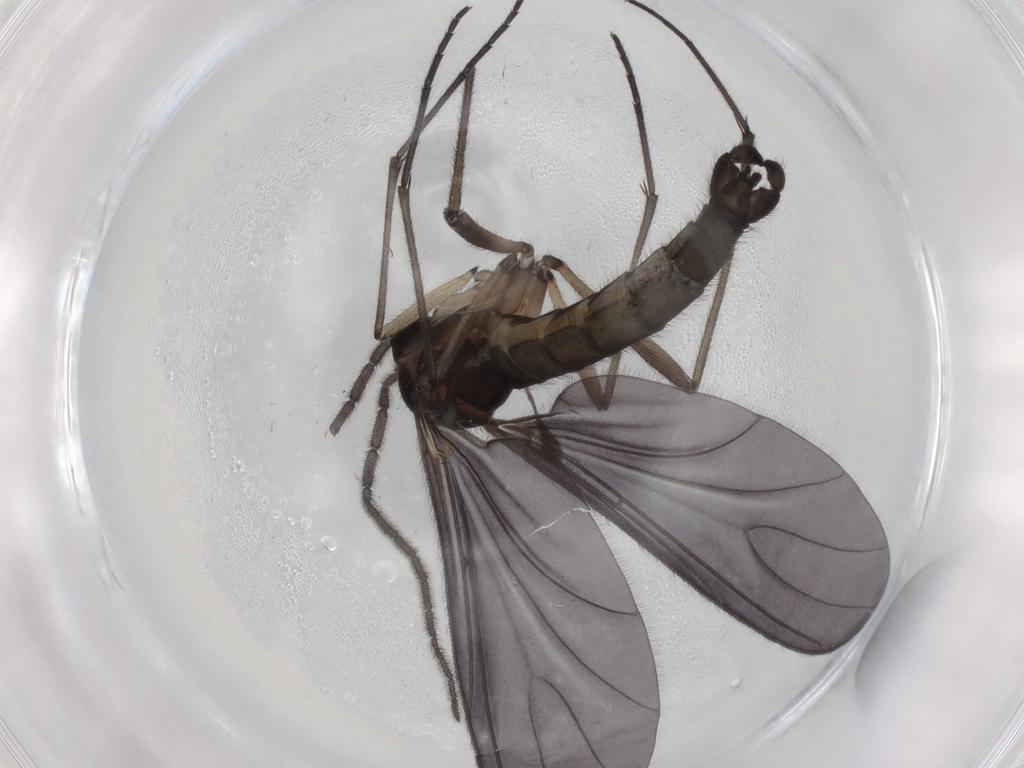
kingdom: Animalia
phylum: Arthropoda
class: Insecta
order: Diptera
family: Sciaridae
